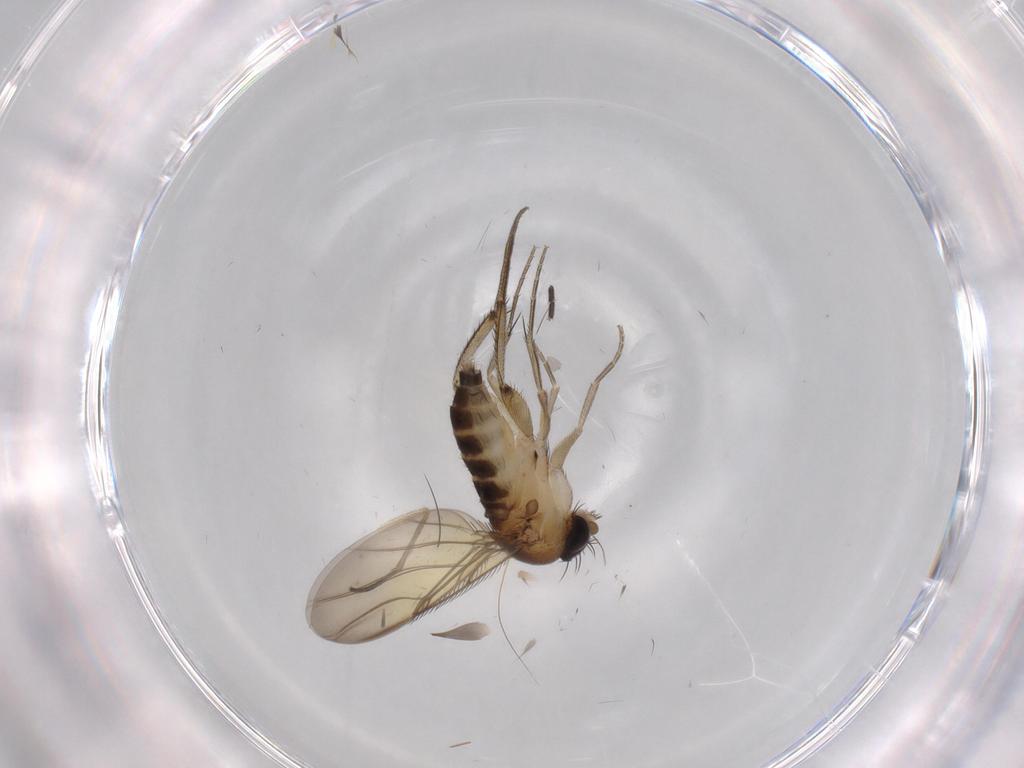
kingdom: Animalia
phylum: Arthropoda
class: Insecta
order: Diptera
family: Phoridae
